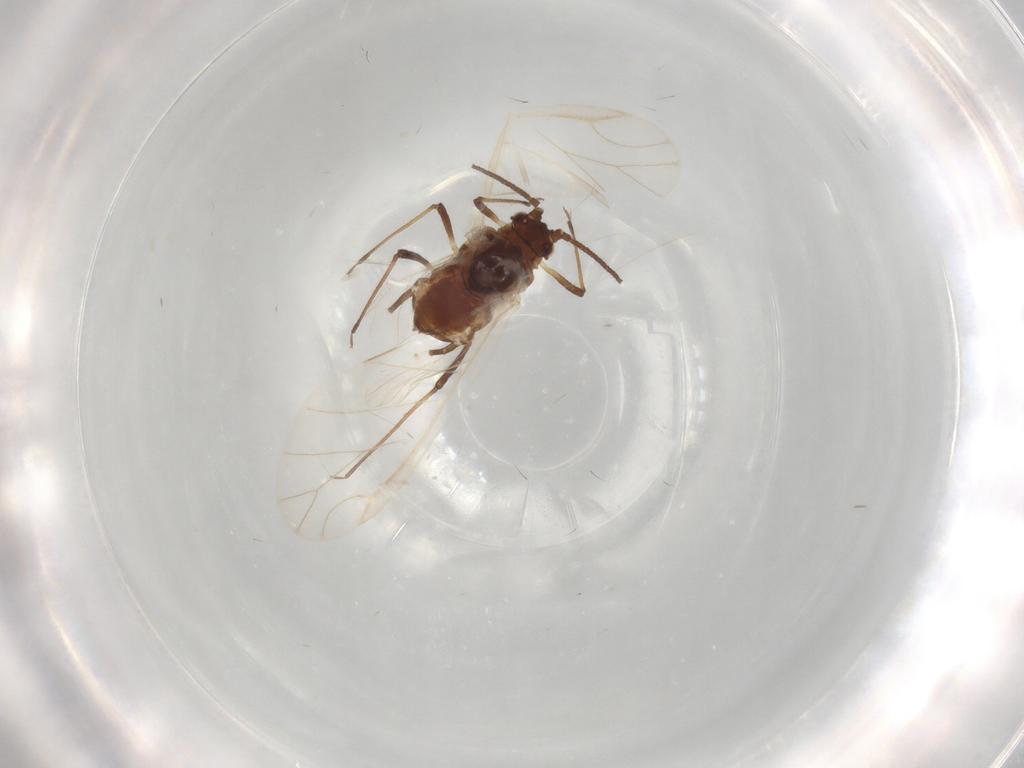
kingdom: Animalia
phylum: Arthropoda
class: Insecta
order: Hemiptera
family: Aphididae
